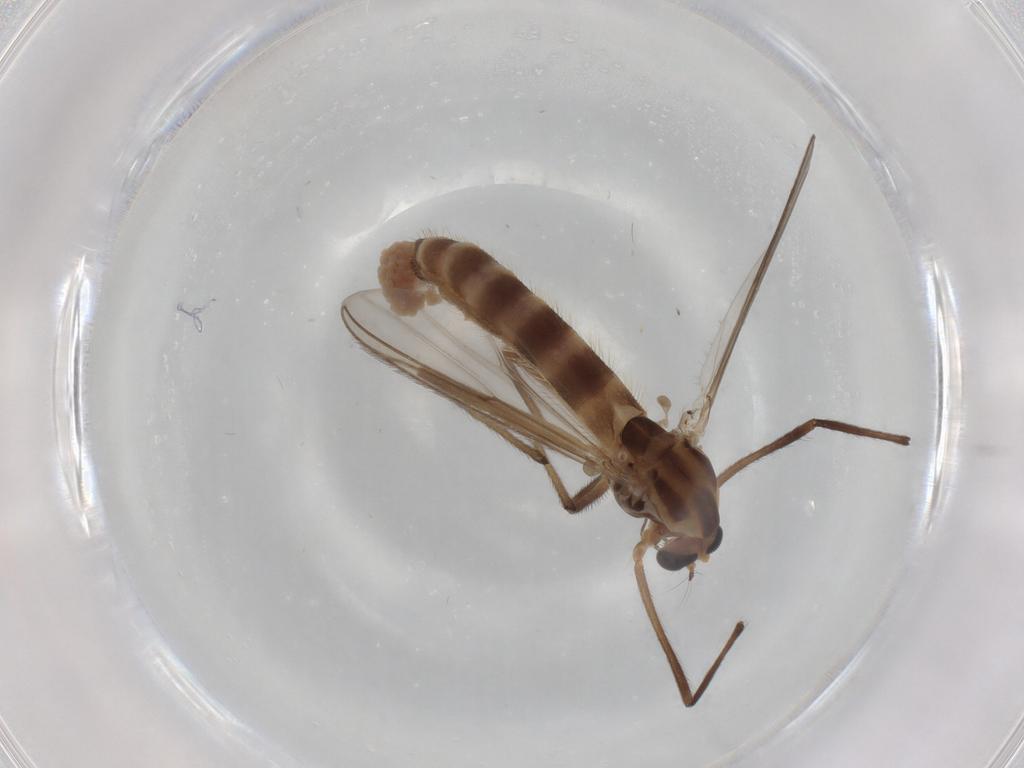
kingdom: Animalia
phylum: Arthropoda
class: Insecta
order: Diptera
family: Chironomidae
